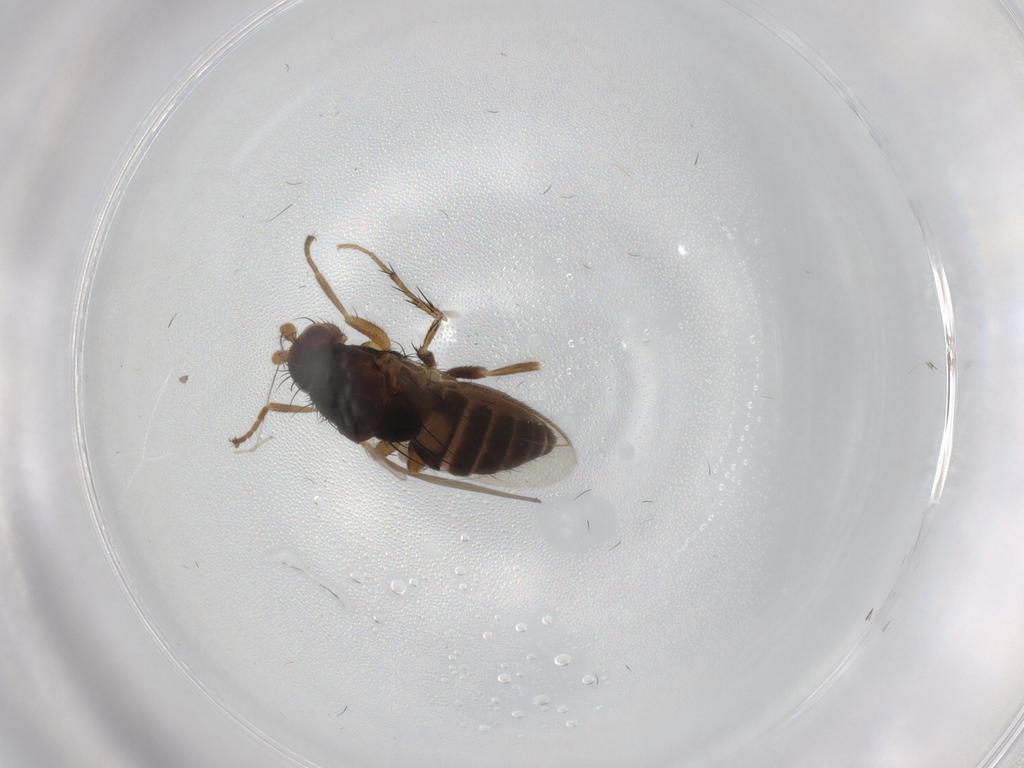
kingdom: Animalia
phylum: Arthropoda
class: Insecta
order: Diptera
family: Sphaeroceridae
